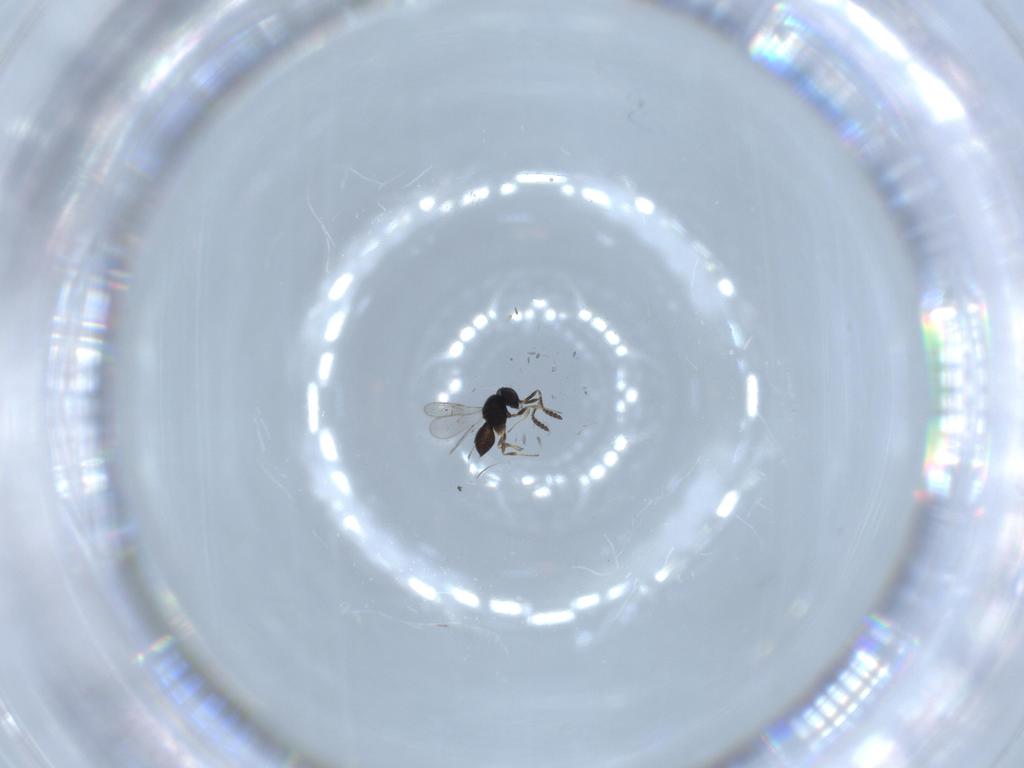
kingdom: Animalia
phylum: Arthropoda
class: Insecta
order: Hymenoptera
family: Scelionidae
